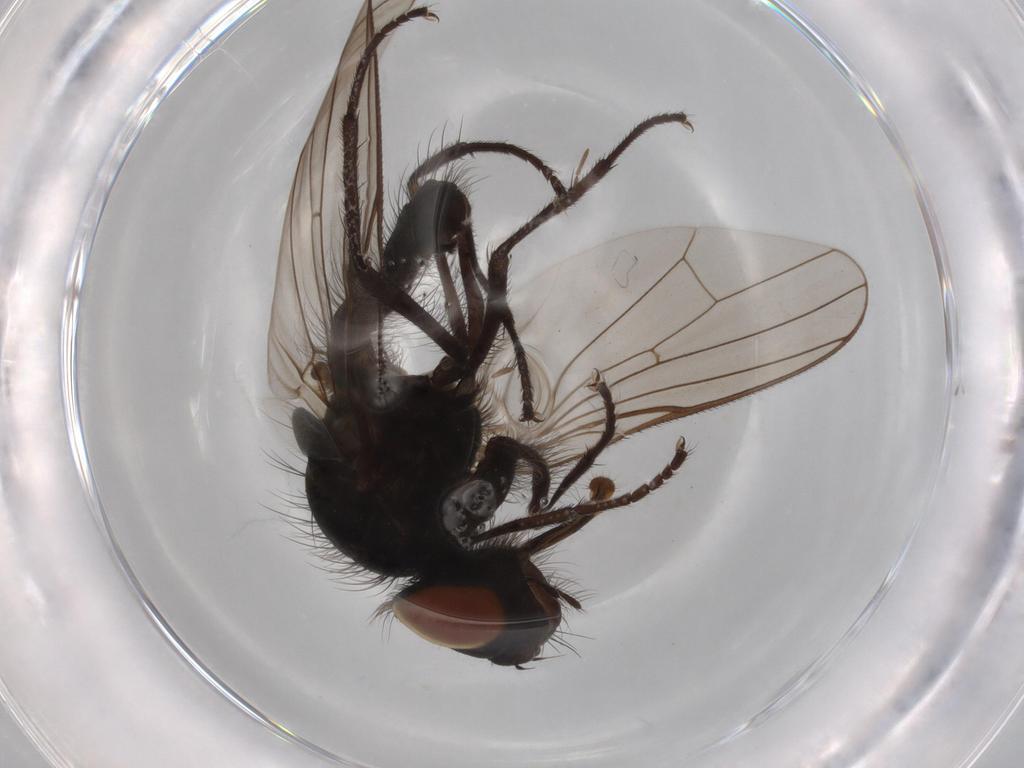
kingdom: Animalia
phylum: Arthropoda
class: Insecta
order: Diptera
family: Anthomyiidae
